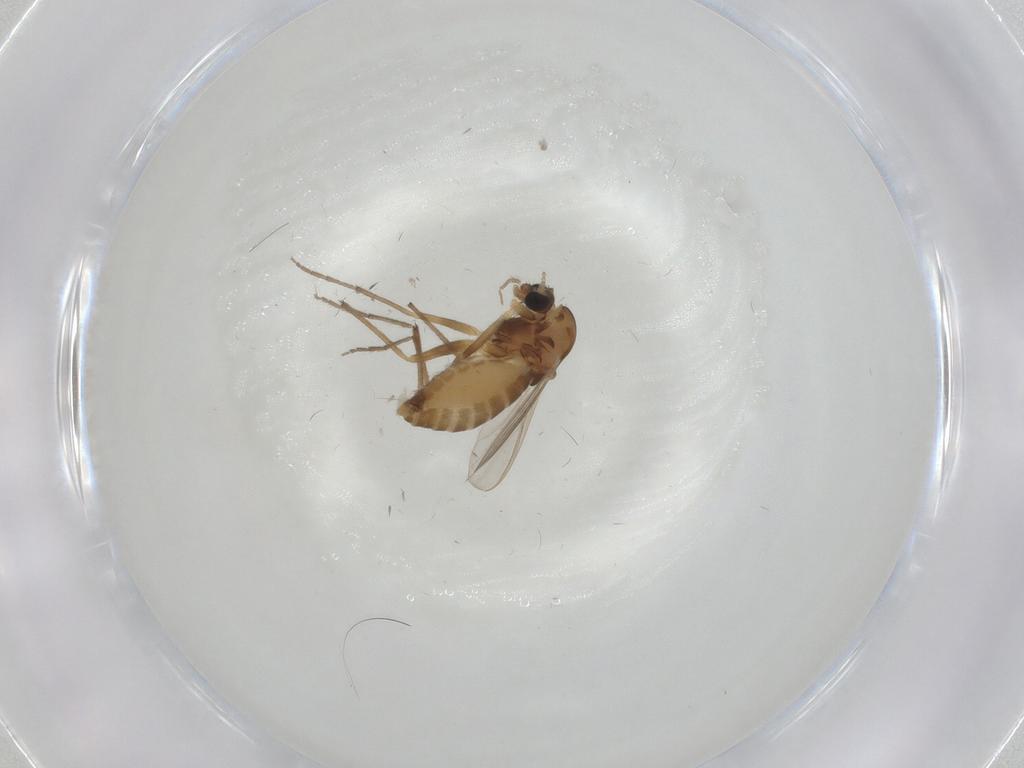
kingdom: Animalia
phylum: Arthropoda
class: Insecta
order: Diptera
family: Chironomidae
